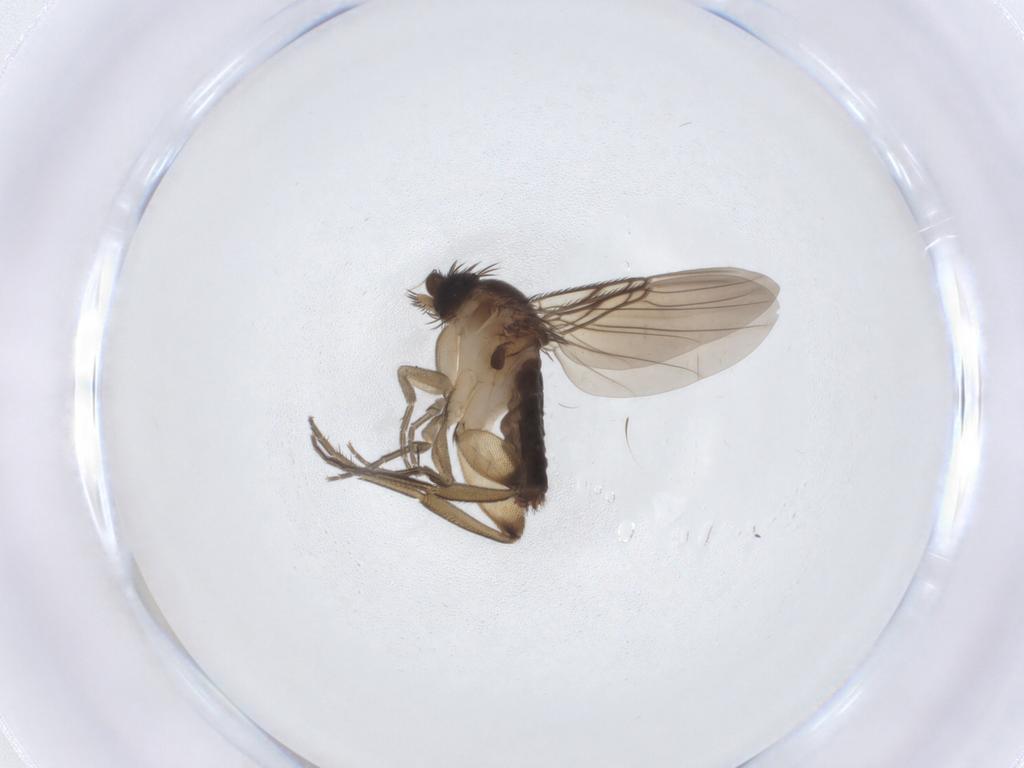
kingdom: Animalia
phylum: Arthropoda
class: Insecta
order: Diptera
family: Phoridae
